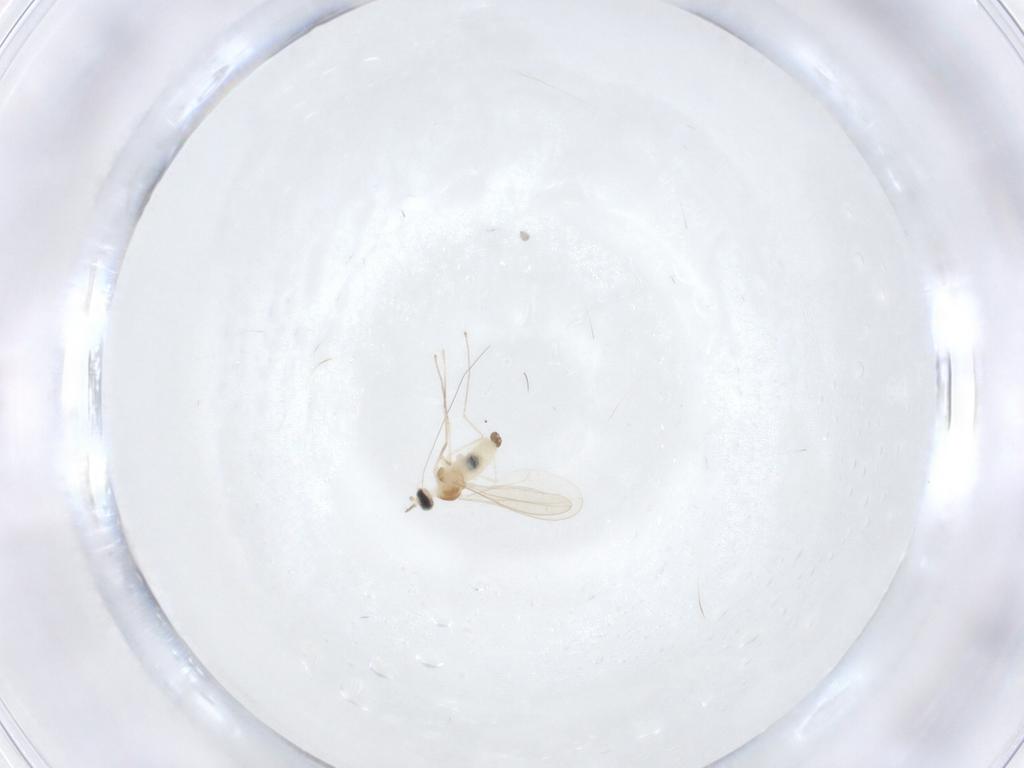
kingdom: Animalia
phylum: Arthropoda
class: Insecta
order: Diptera
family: Cecidomyiidae
